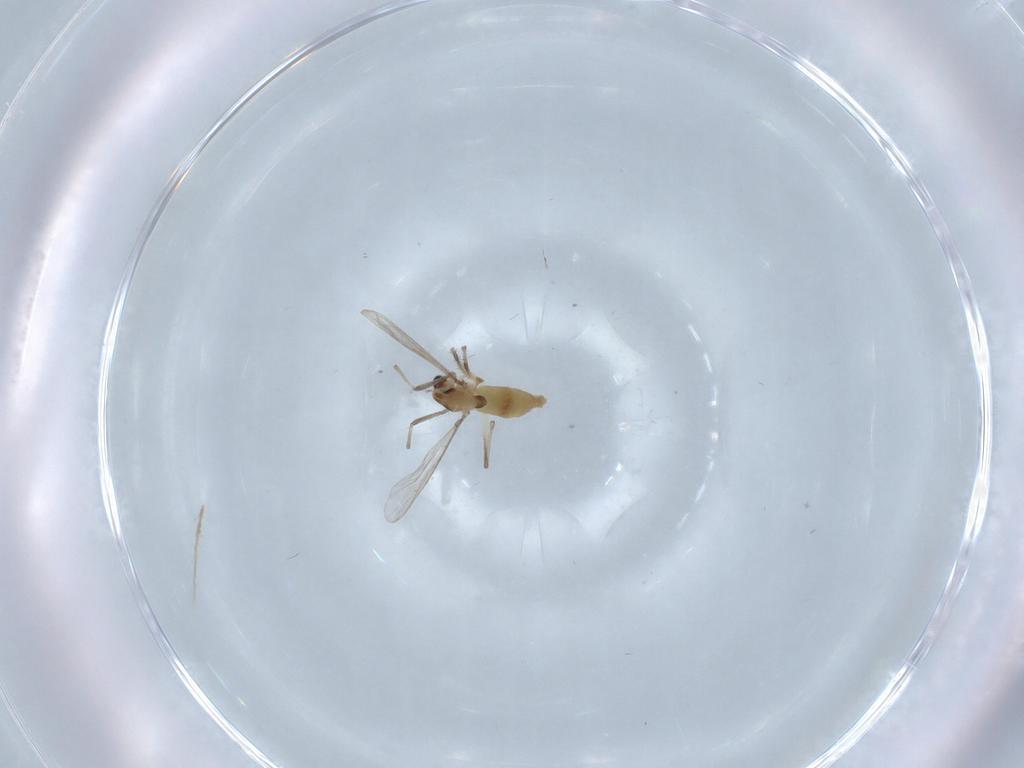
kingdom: Animalia
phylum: Arthropoda
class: Insecta
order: Diptera
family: Chironomidae
